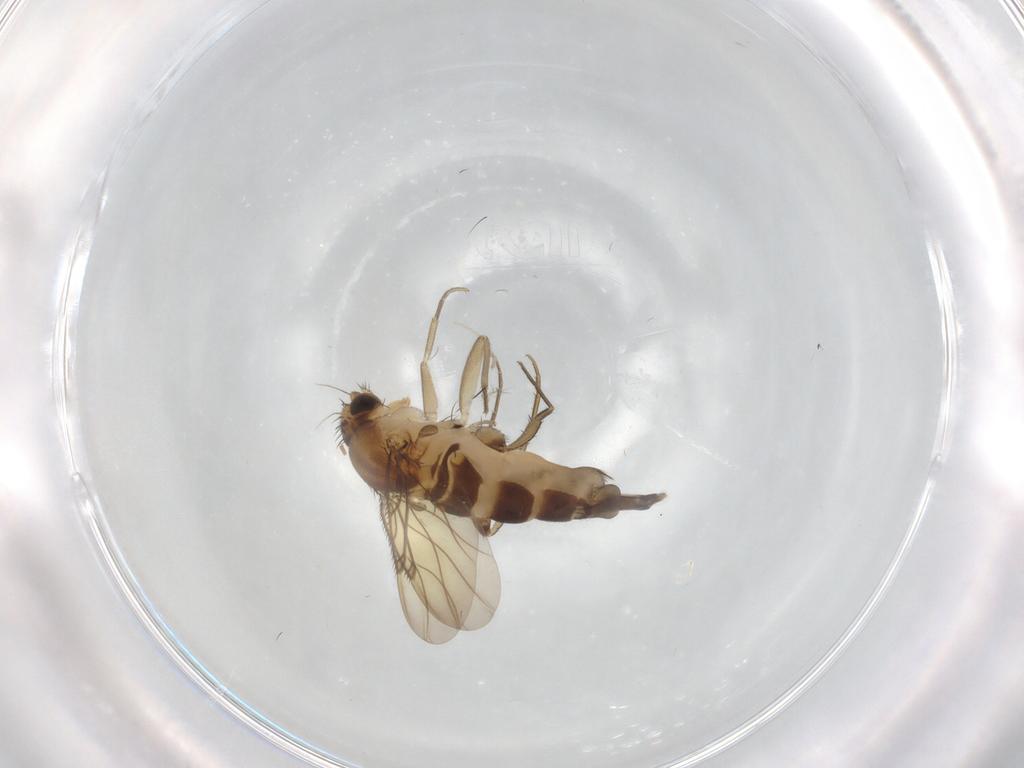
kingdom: Animalia
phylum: Arthropoda
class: Insecta
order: Diptera
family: Phoridae
